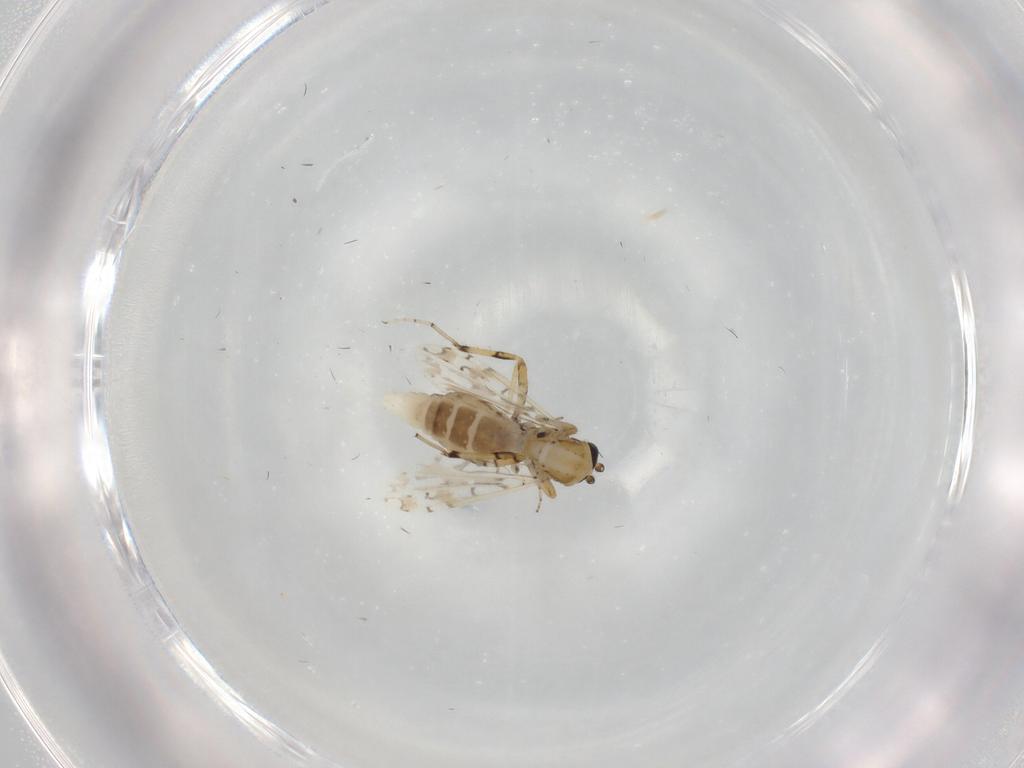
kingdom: Animalia
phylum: Arthropoda
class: Insecta
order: Diptera
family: Ceratopogonidae
